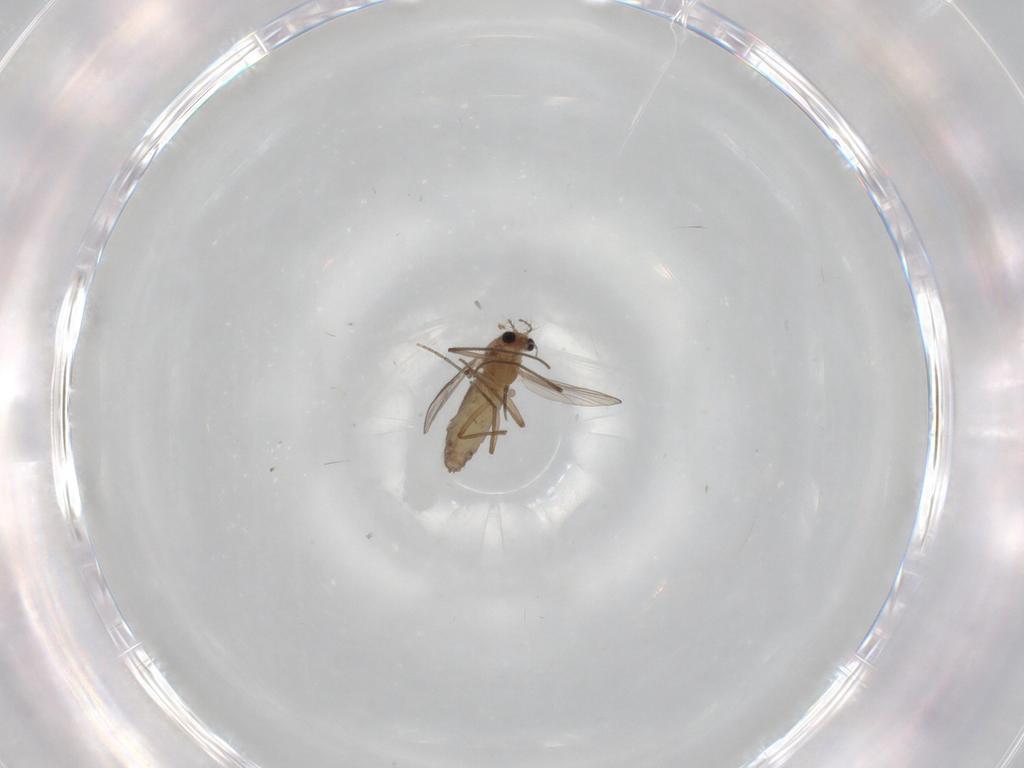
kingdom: Animalia
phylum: Arthropoda
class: Insecta
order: Diptera
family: Chironomidae
